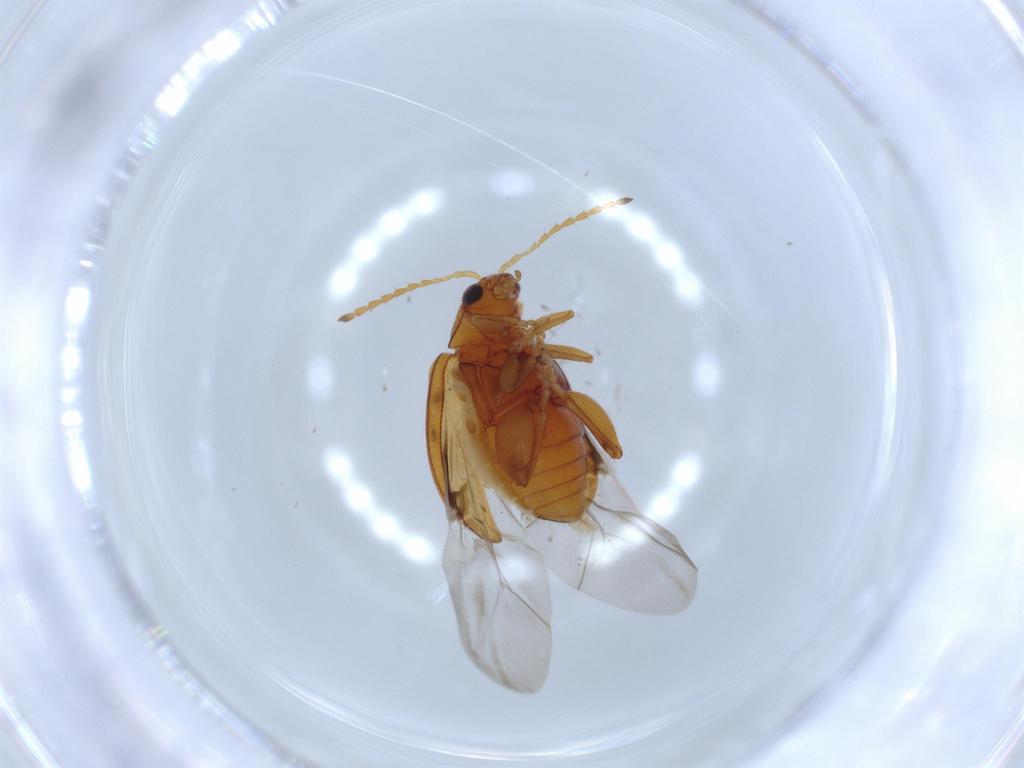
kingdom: Animalia
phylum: Arthropoda
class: Insecta
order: Coleoptera
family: Chrysomelidae
